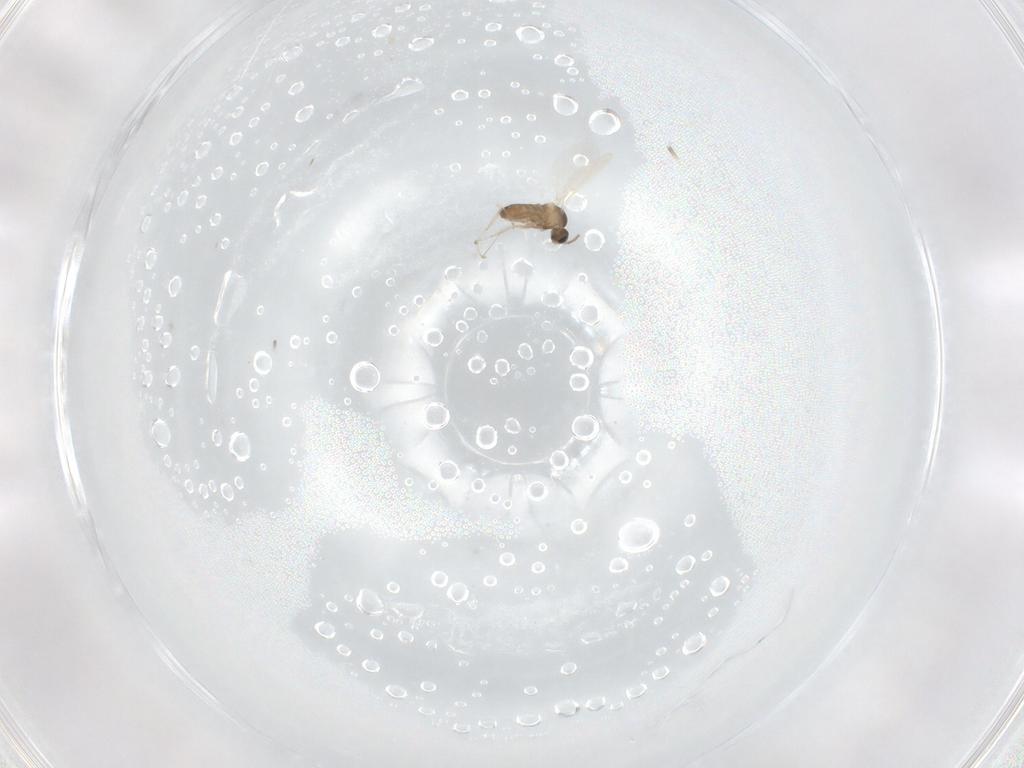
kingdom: Animalia
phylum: Arthropoda
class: Insecta
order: Diptera
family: Cecidomyiidae
